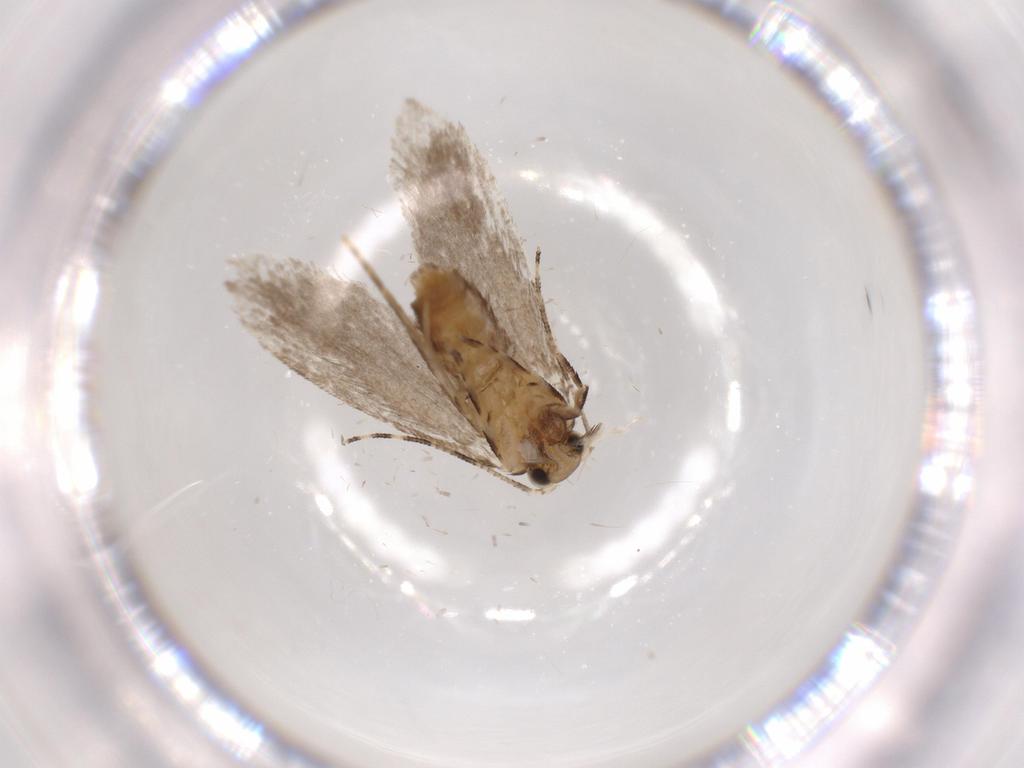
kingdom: Animalia
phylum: Arthropoda
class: Insecta
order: Lepidoptera
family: Tineidae
